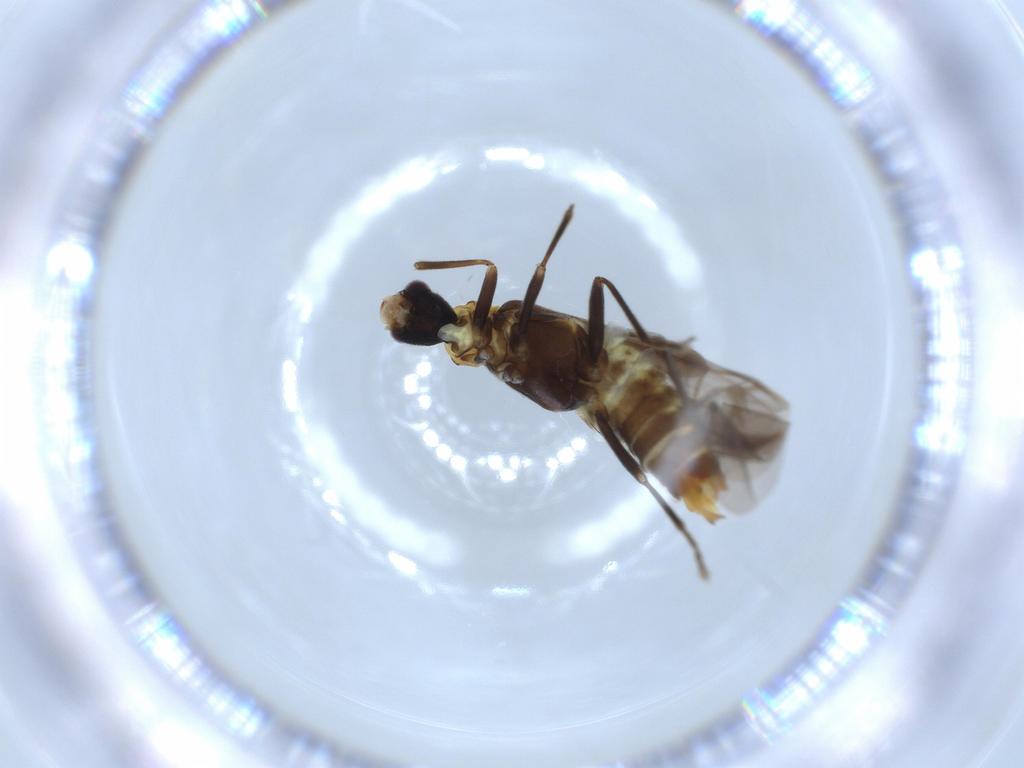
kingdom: Animalia
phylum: Arthropoda
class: Insecta
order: Coleoptera
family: Cantharidae
